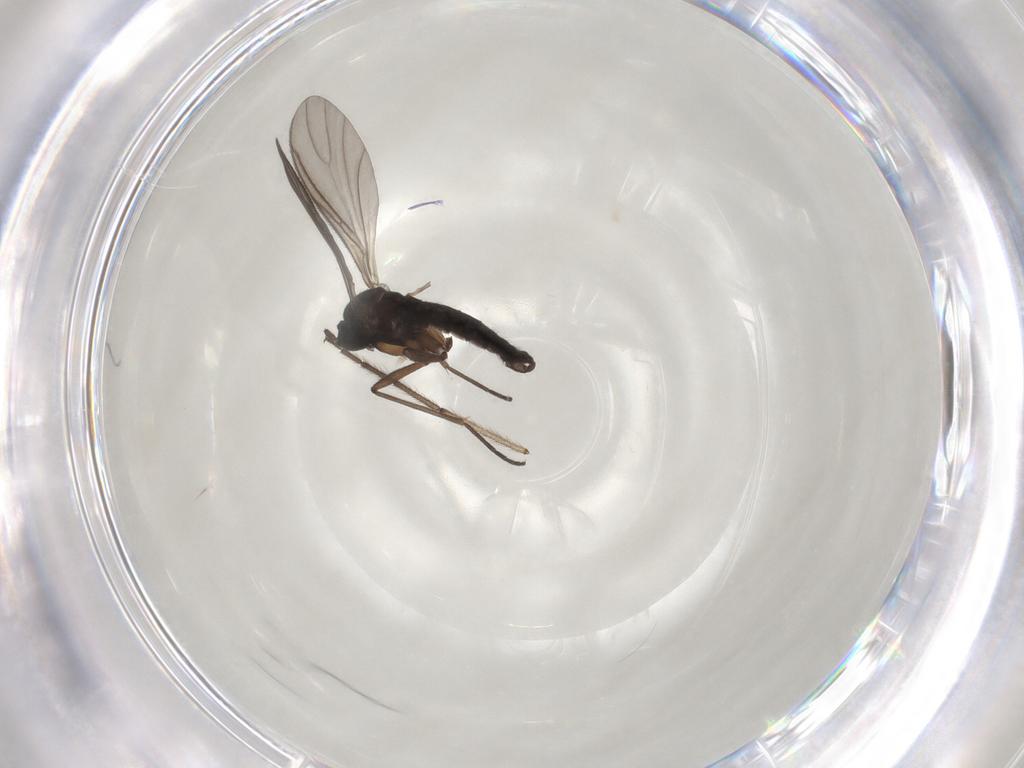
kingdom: Animalia
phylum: Arthropoda
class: Insecta
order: Diptera
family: Sciaridae
